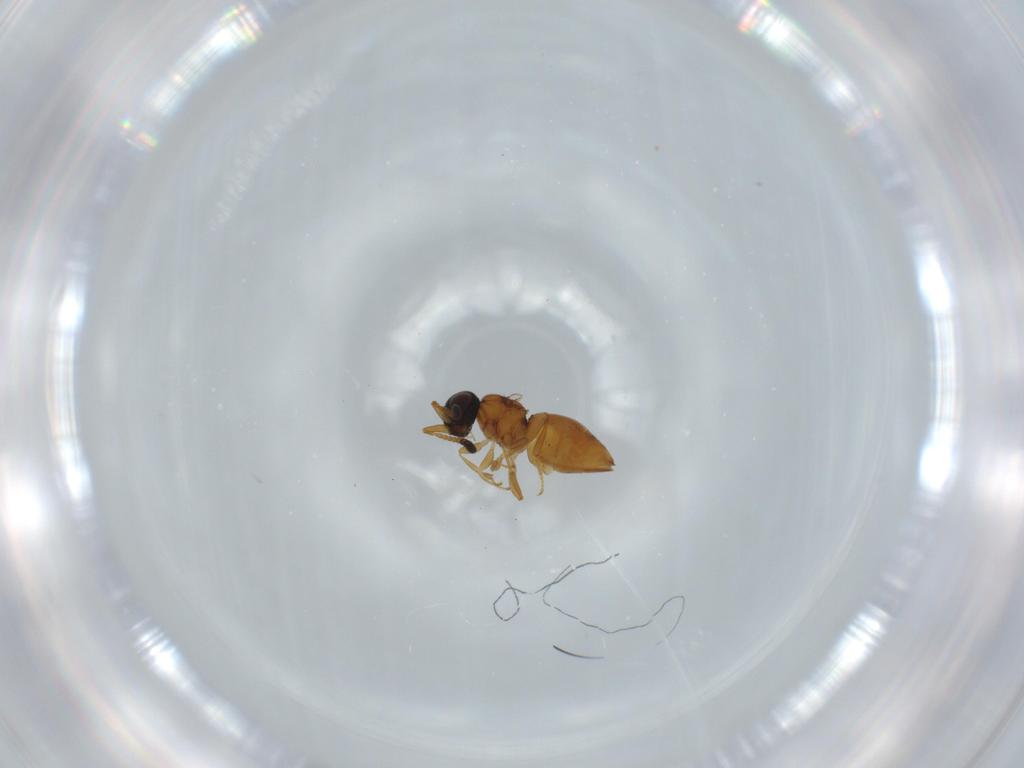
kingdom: Animalia
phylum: Arthropoda
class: Insecta
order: Hymenoptera
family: Ceraphronidae
